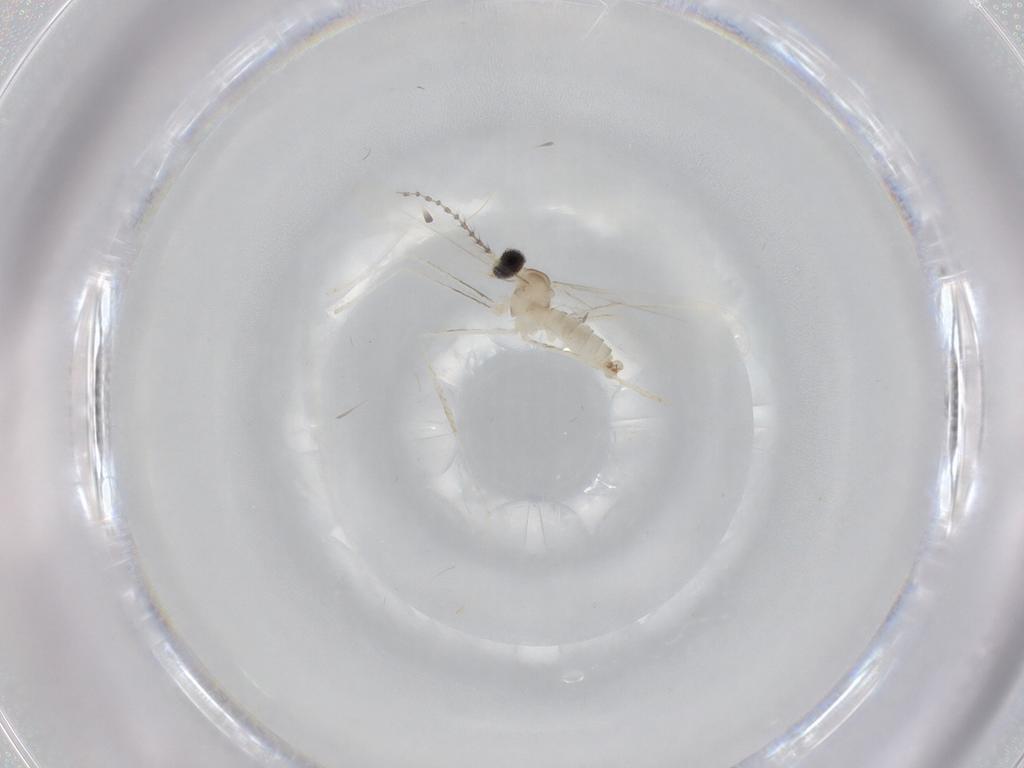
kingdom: Animalia
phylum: Arthropoda
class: Insecta
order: Diptera
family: Cecidomyiidae
